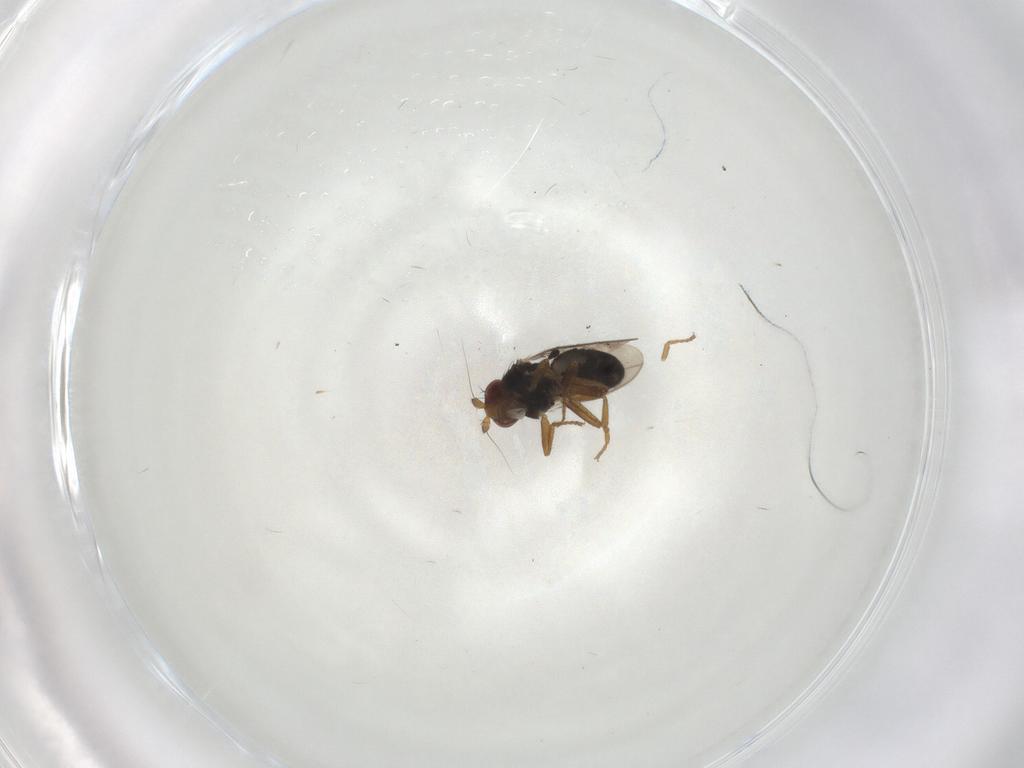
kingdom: Animalia
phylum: Arthropoda
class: Insecta
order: Diptera
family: Sphaeroceridae
